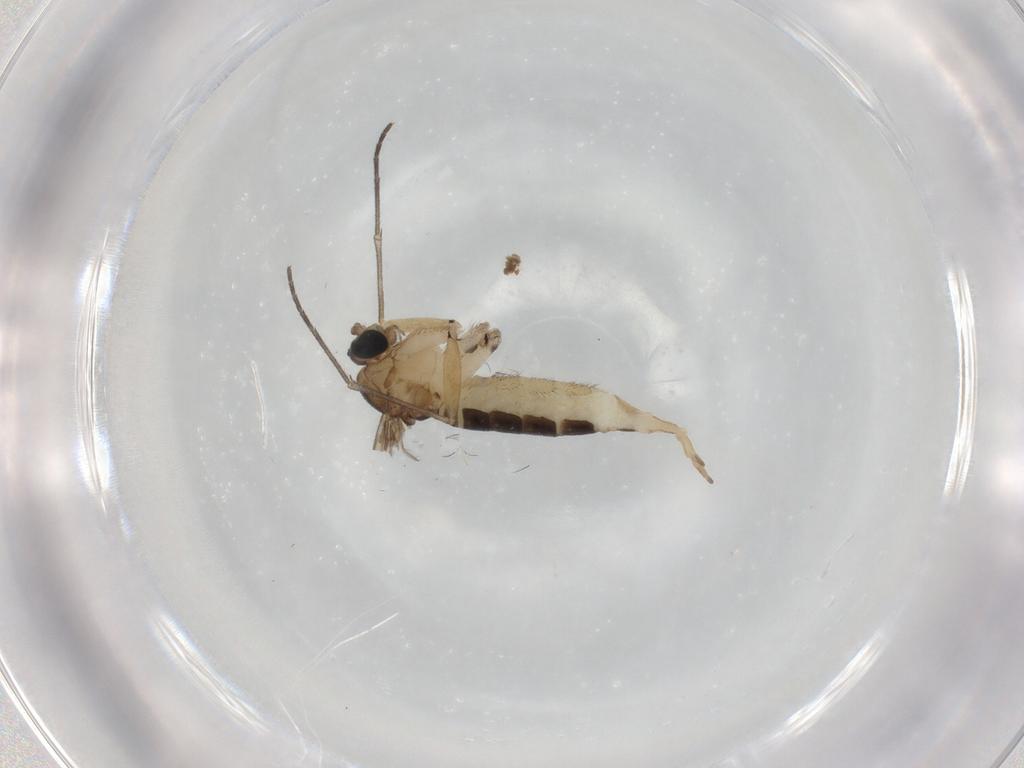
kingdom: Animalia
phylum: Arthropoda
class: Insecta
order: Diptera
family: Sciaridae
